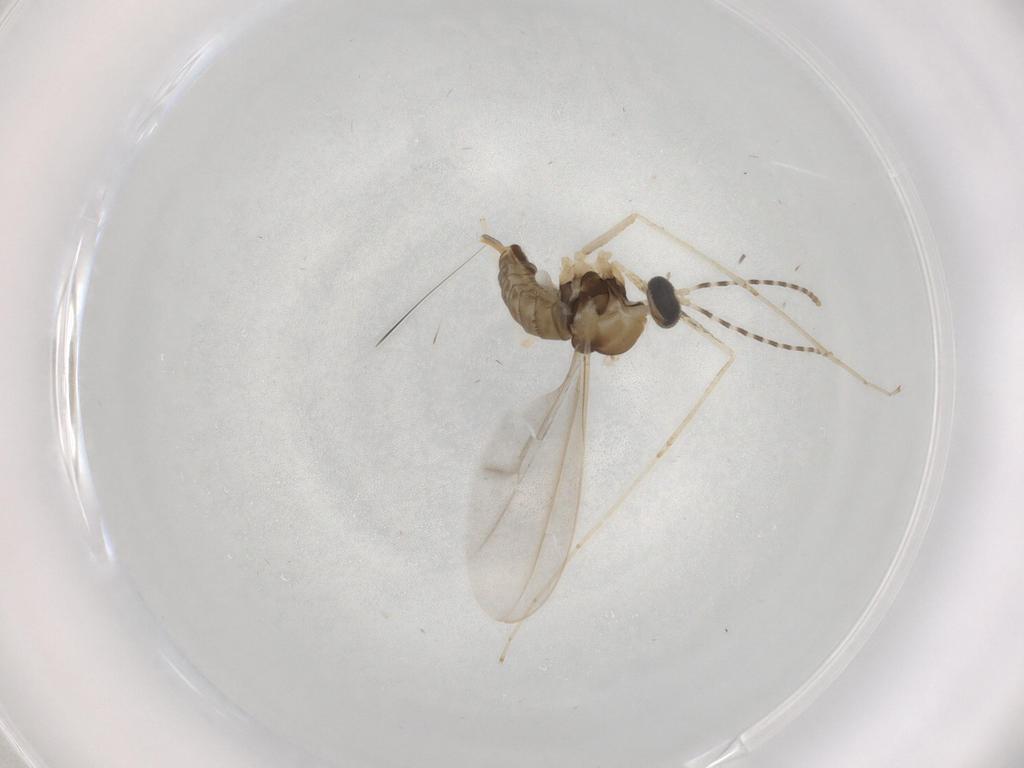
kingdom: Animalia
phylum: Arthropoda
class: Insecta
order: Diptera
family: Cecidomyiidae
